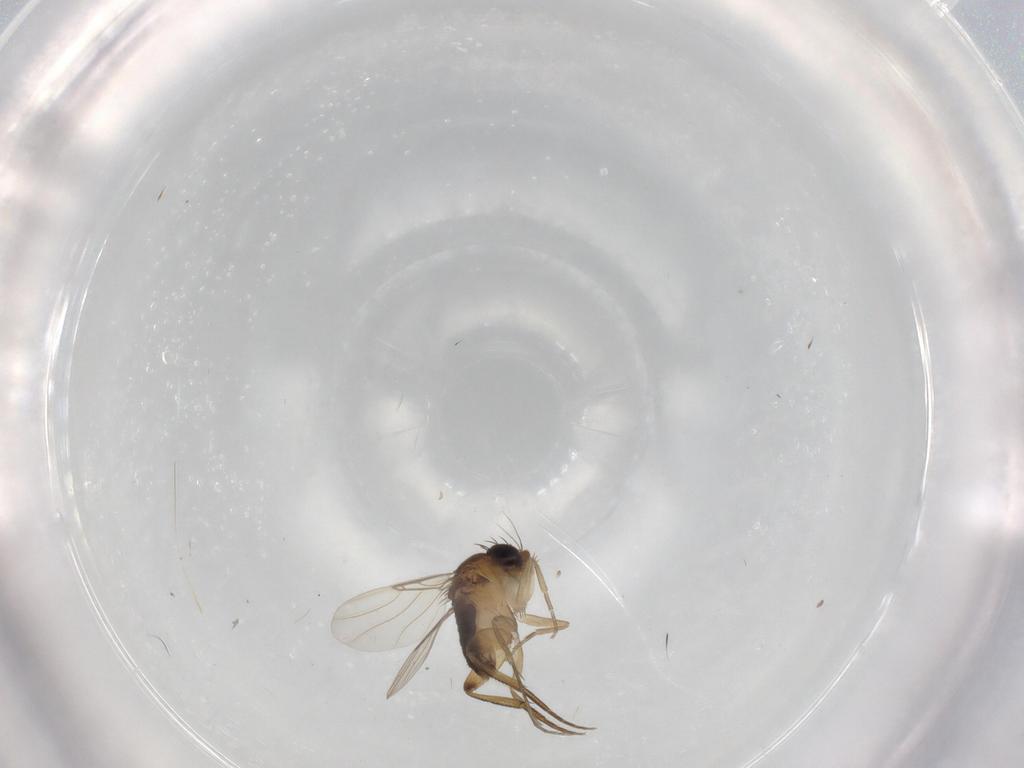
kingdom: Animalia
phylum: Arthropoda
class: Insecta
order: Diptera
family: Phoridae
